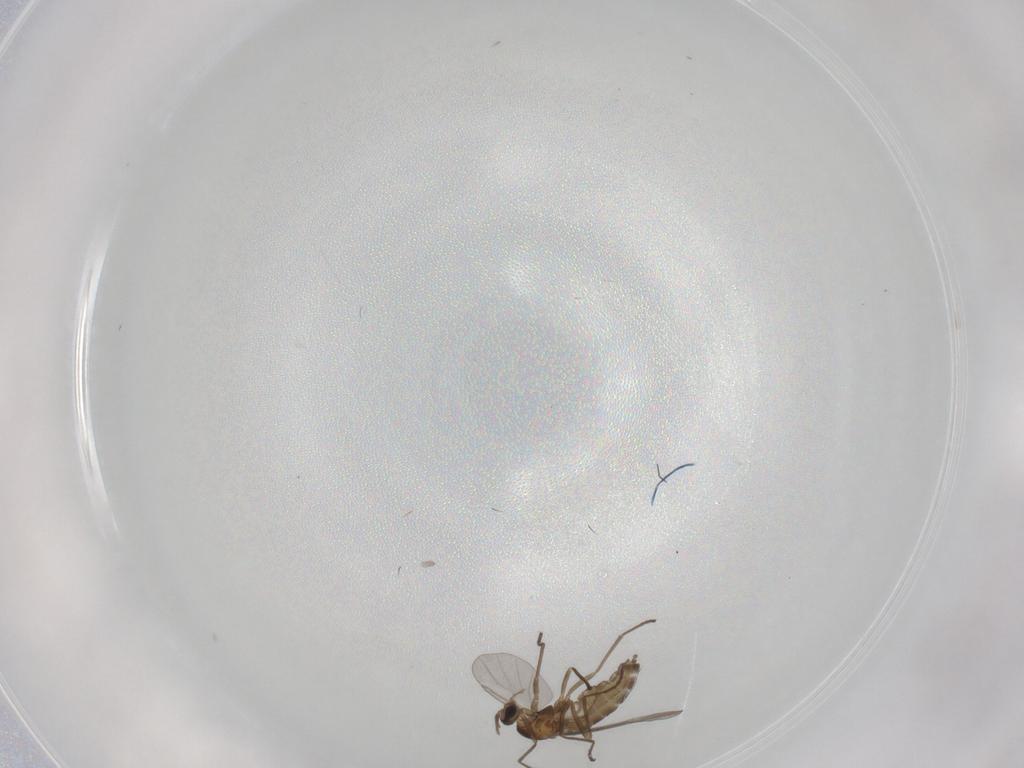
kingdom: Animalia
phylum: Arthropoda
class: Insecta
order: Diptera
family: Cecidomyiidae
